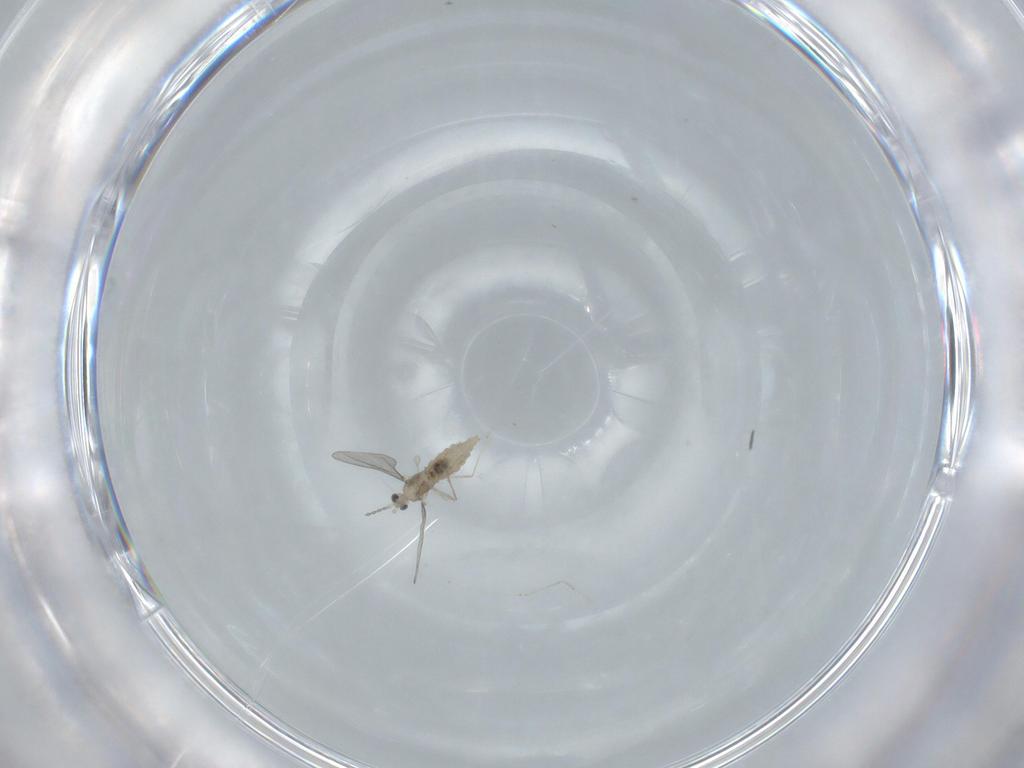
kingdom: Animalia
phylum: Arthropoda
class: Insecta
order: Diptera
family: Cecidomyiidae
